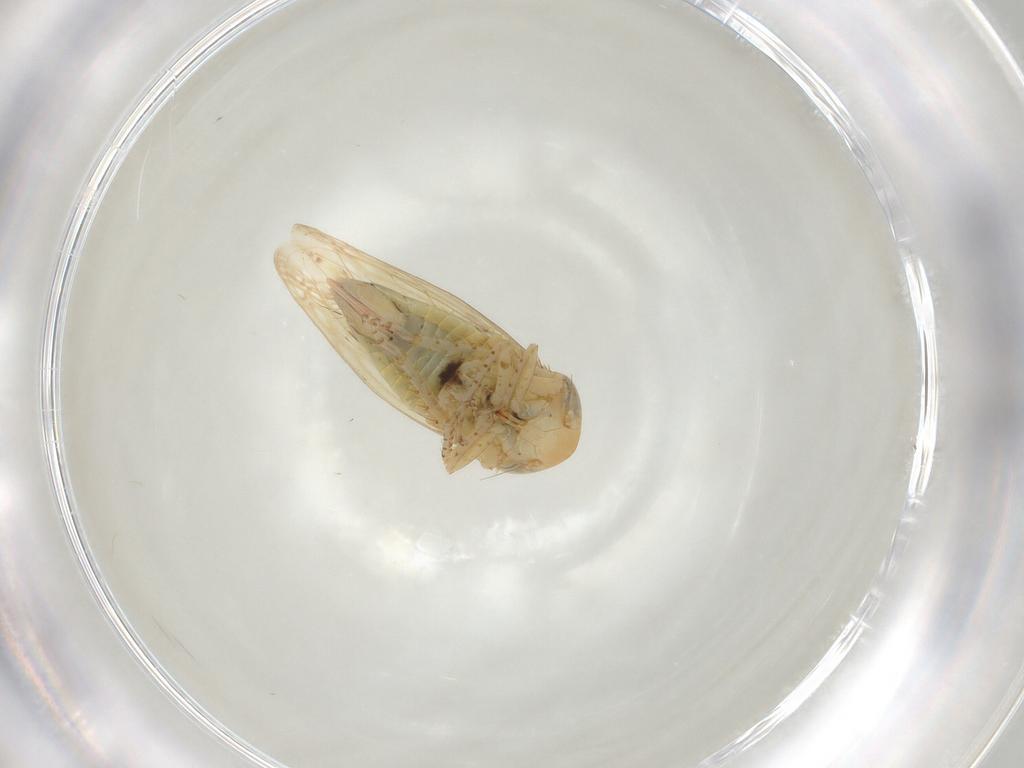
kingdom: Animalia
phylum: Arthropoda
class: Insecta
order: Hemiptera
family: Cicadellidae
